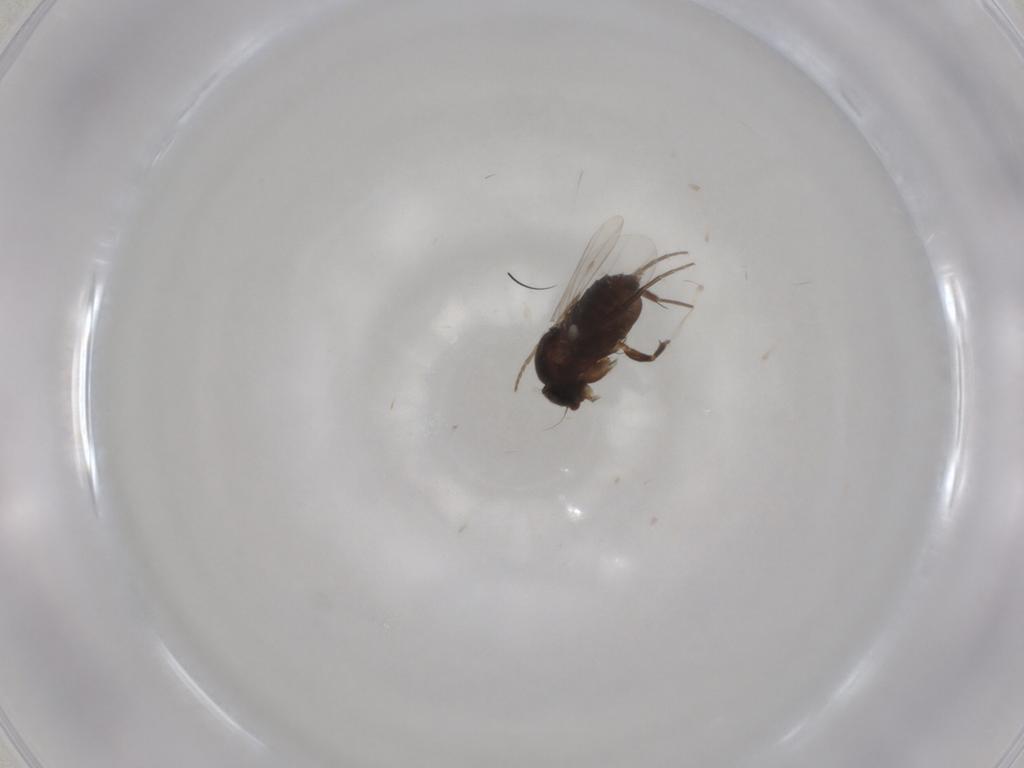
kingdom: Animalia
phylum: Arthropoda
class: Insecta
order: Diptera
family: Phoridae
